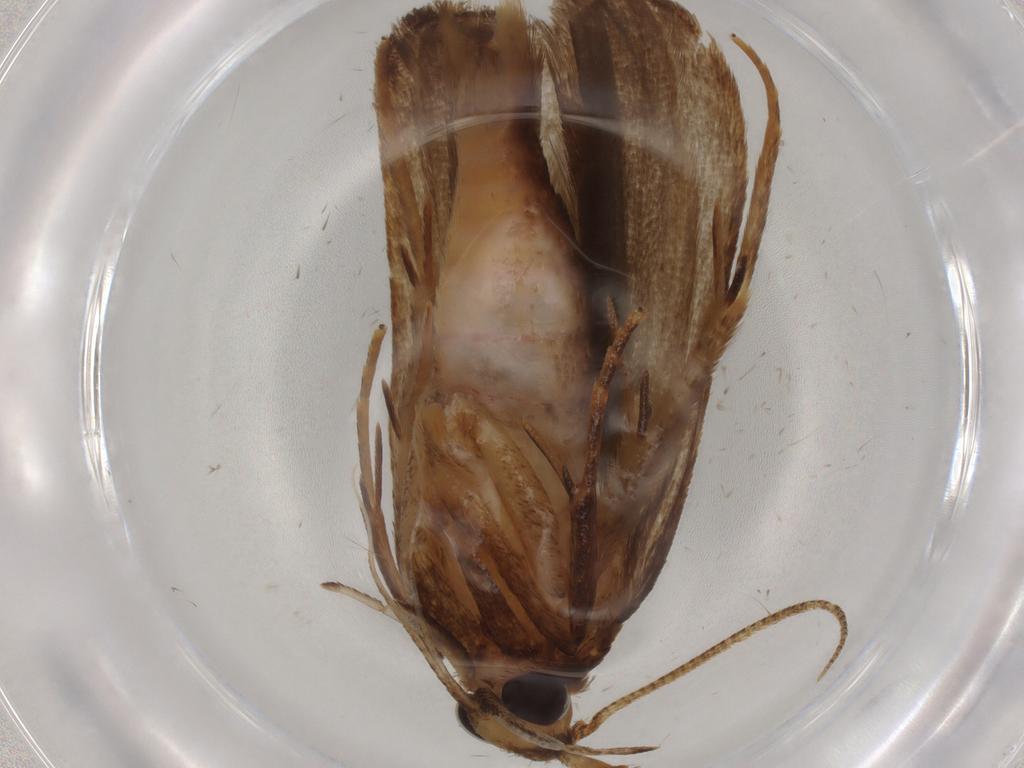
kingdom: Animalia
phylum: Arthropoda
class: Insecta
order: Lepidoptera
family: Autostichidae
